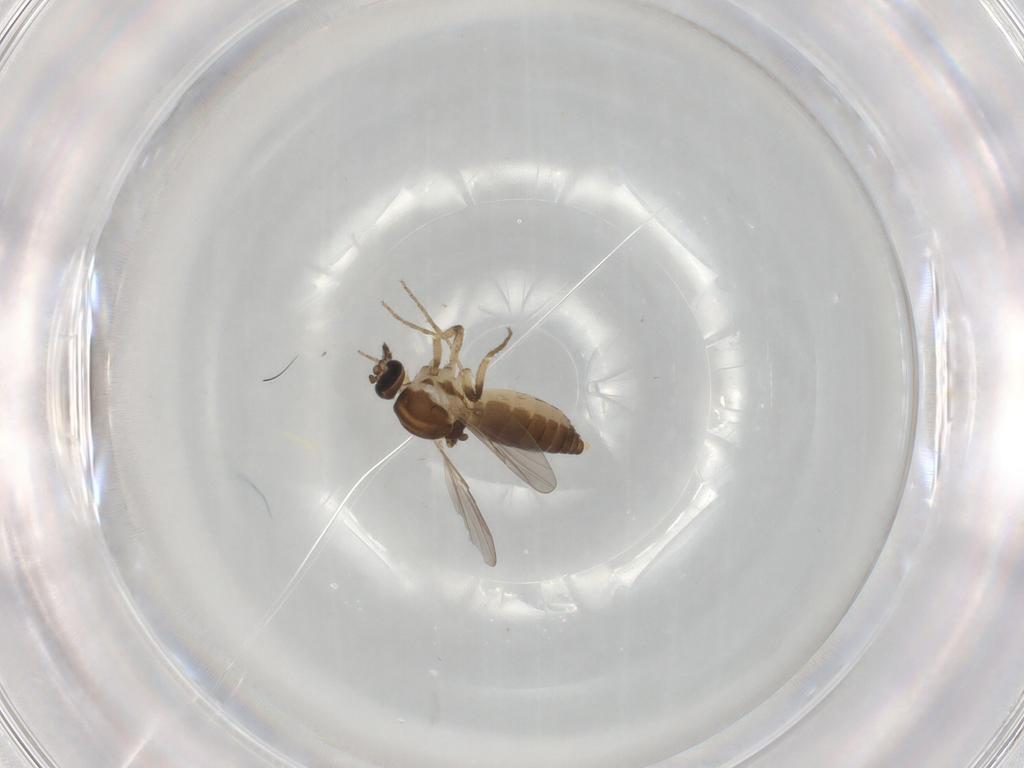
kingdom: Animalia
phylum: Arthropoda
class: Insecta
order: Diptera
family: Ceratopogonidae
